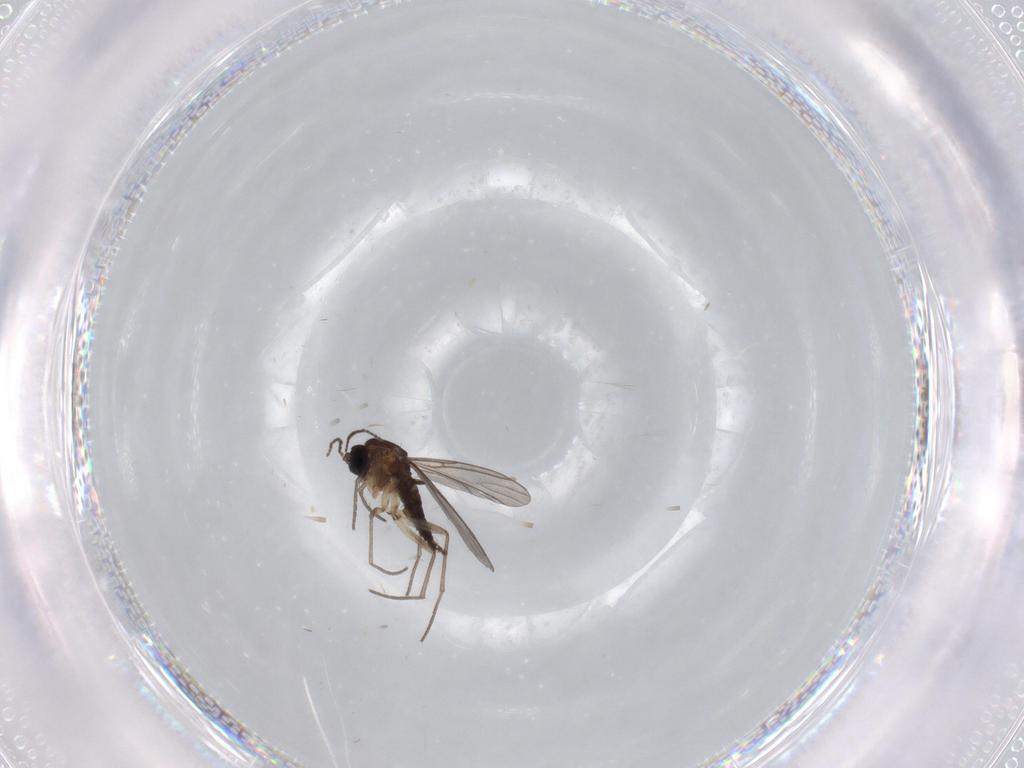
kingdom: Animalia
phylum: Arthropoda
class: Insecta
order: Diptera
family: Sciaridae
